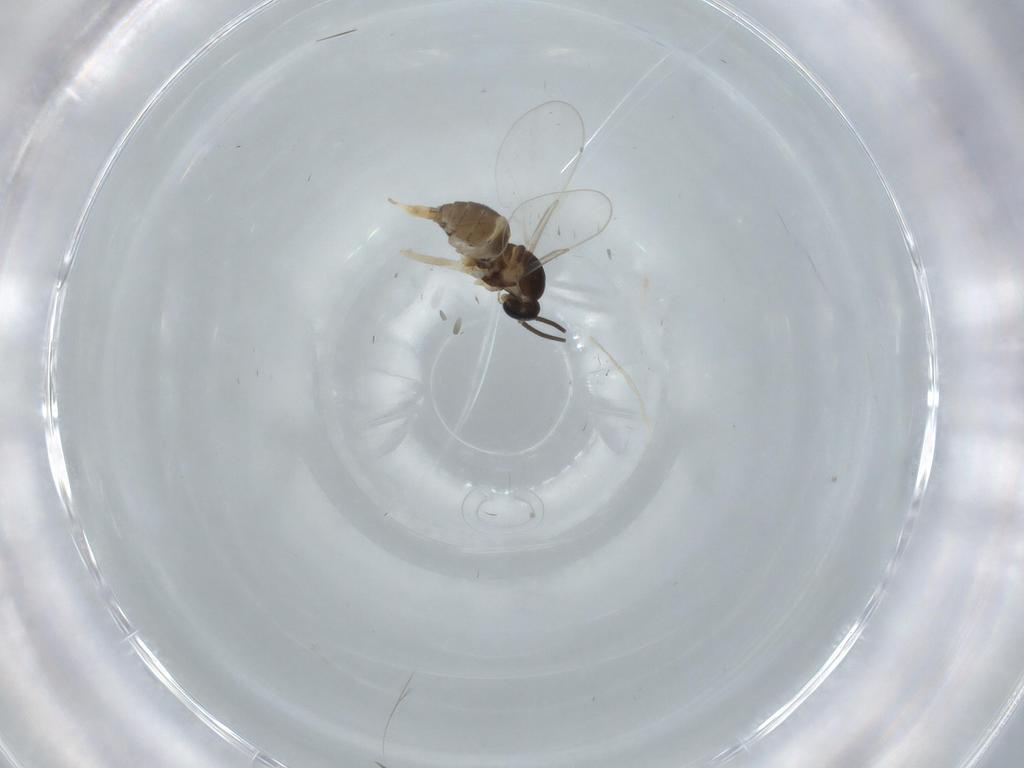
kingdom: Animalia
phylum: Arthropoda
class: Insecta
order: Diptera
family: Cecidomyiidae
